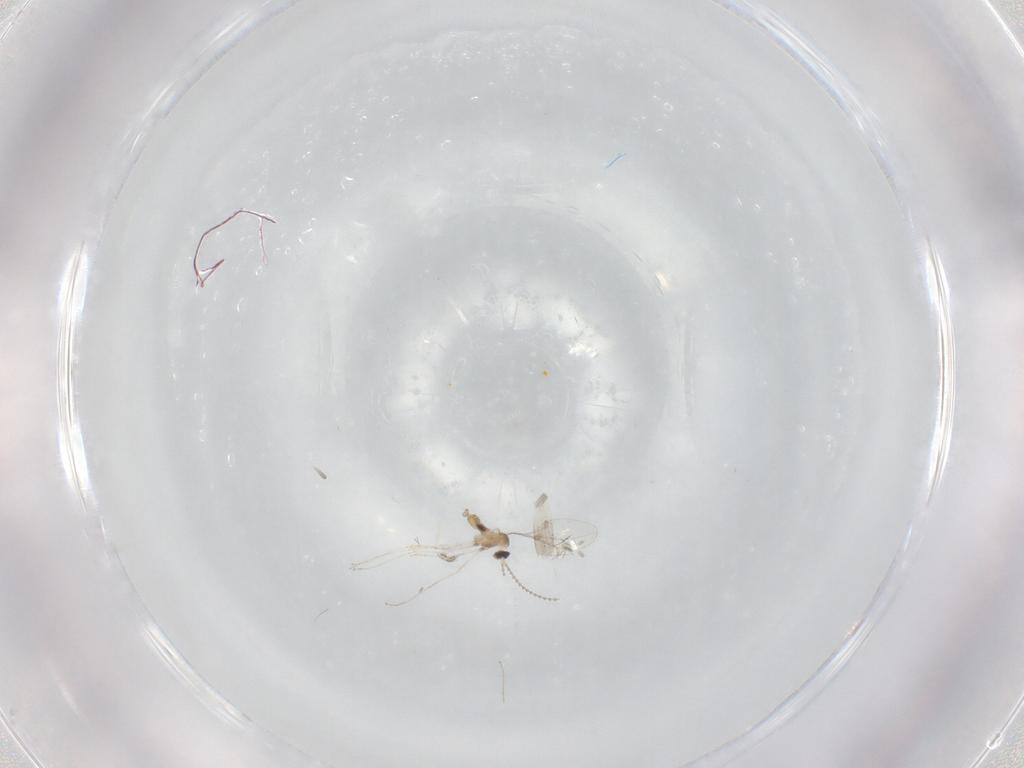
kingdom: Animalia
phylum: Arthropoda
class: Insecta
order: Diptera
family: Cecidomyiidae
